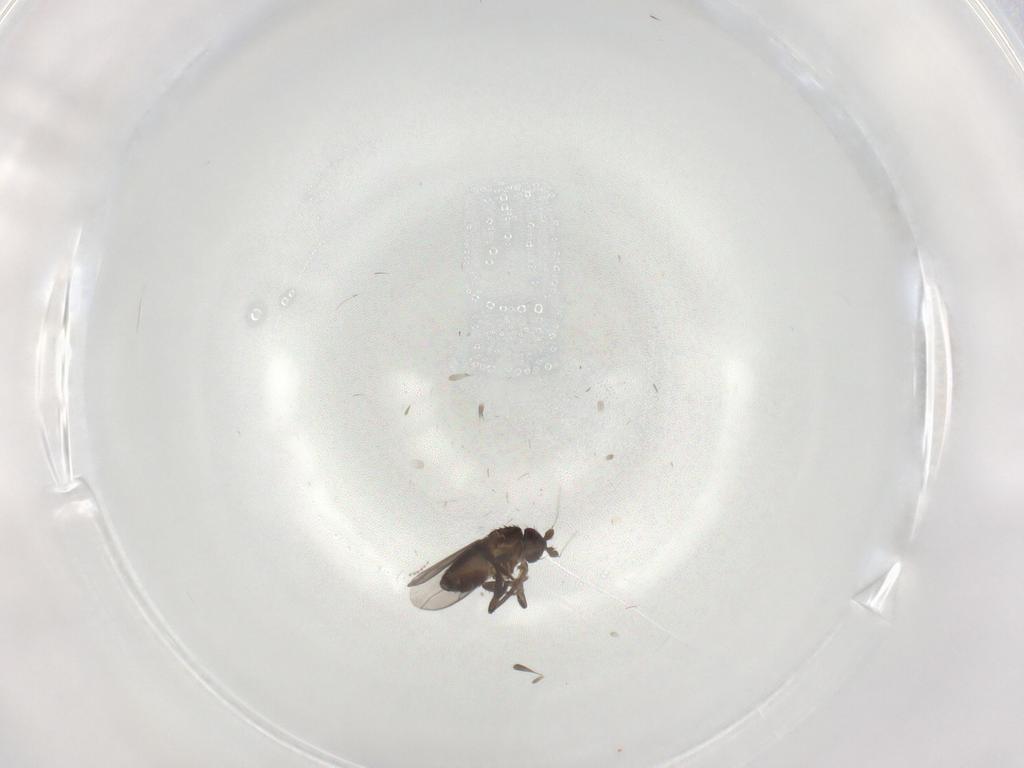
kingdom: Animalia
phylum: Arthropoda
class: Insecta
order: Diptera
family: Sphaeroceridae
